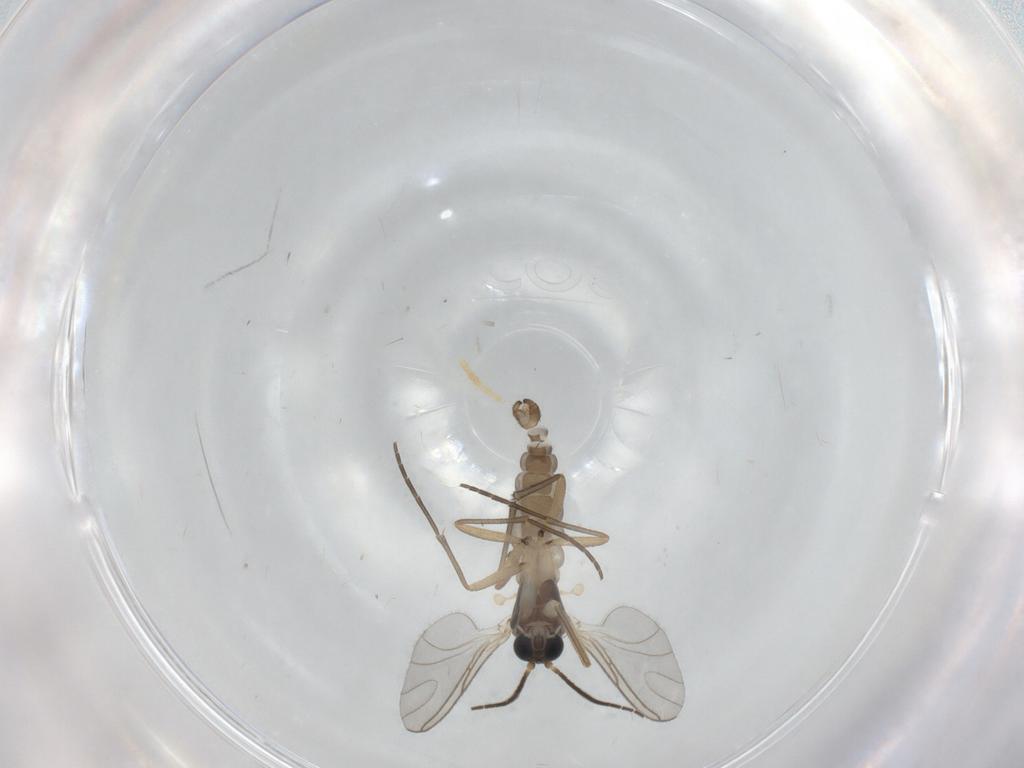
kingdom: Animalia
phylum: Arthropoda
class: Insecta
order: Diptera
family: Sciaridae
